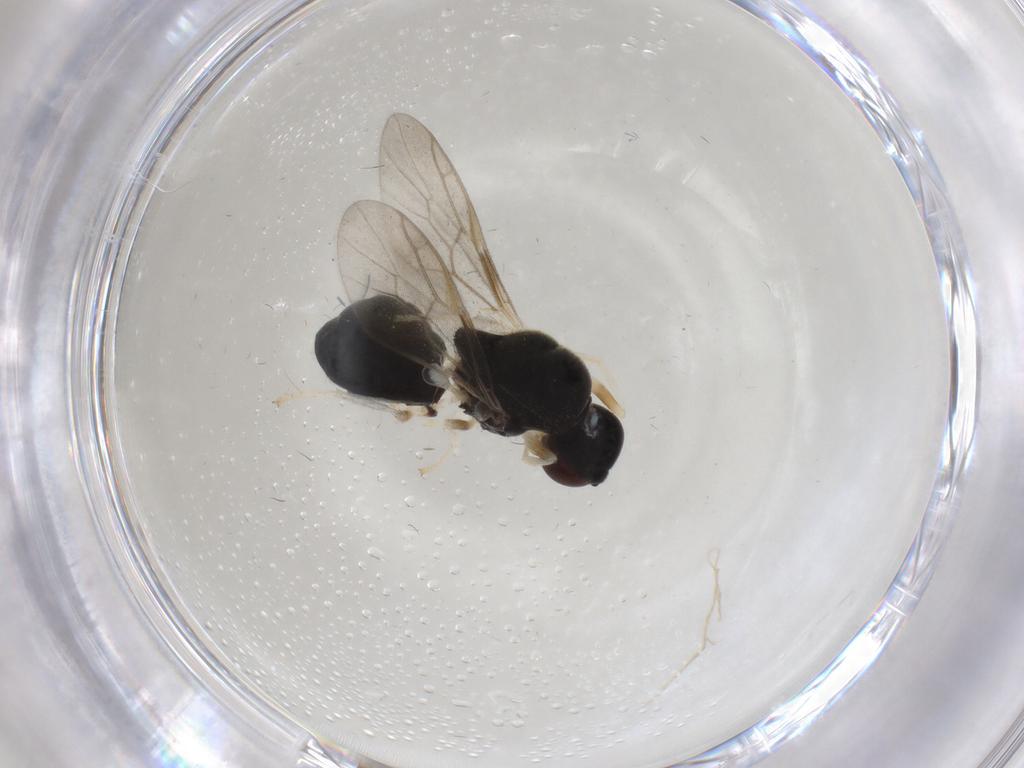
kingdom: Animalia
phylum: Arthropoda
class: Insecta
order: Diptera
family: Stratiomyidae
